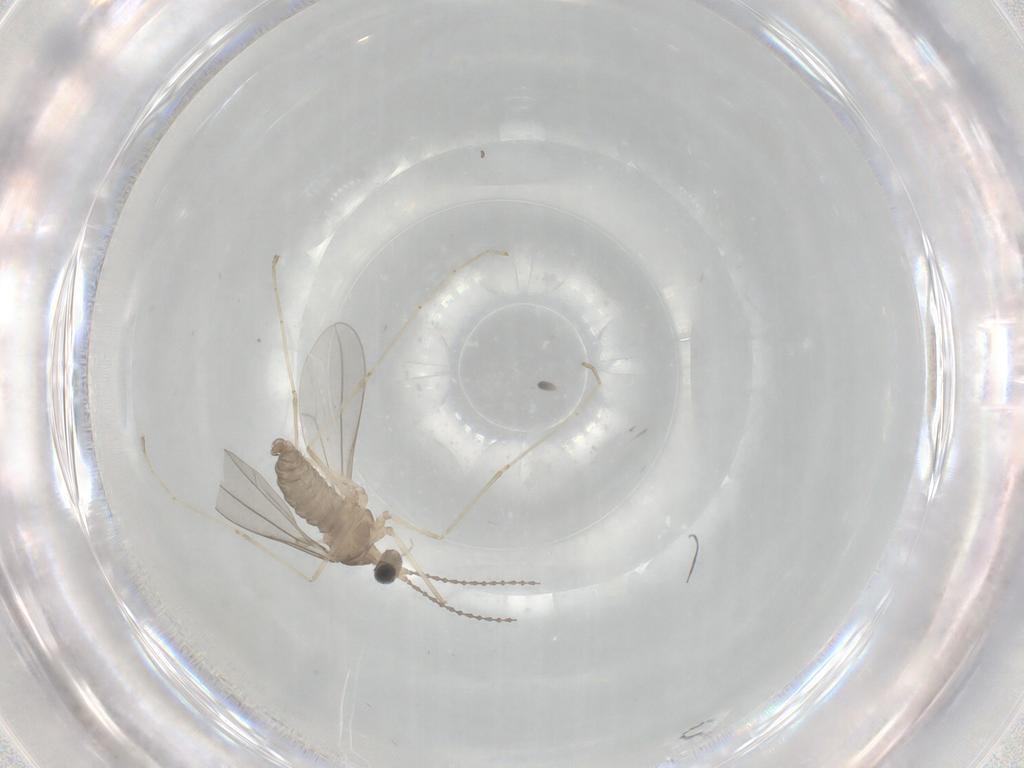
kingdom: Animalia
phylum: Arthropoda
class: Insecta
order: Diptera
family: Cecidomyiidae
